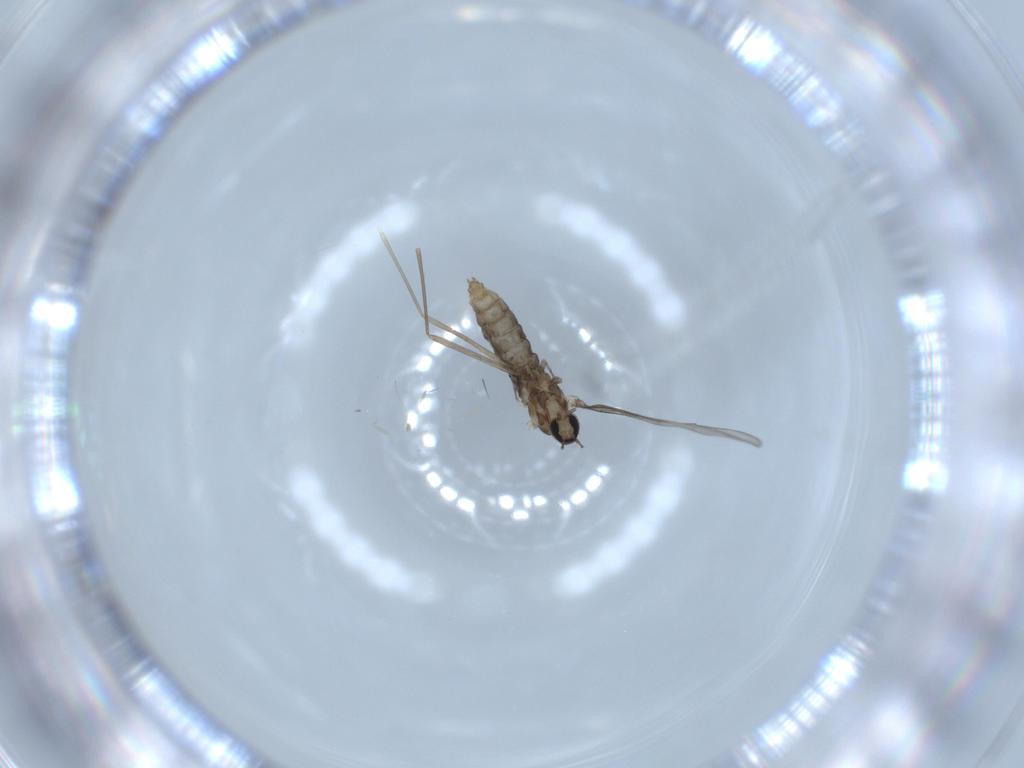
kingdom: Animalia
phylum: Arthropoda
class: Insecta
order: Diptera
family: Cecidomyiidae
